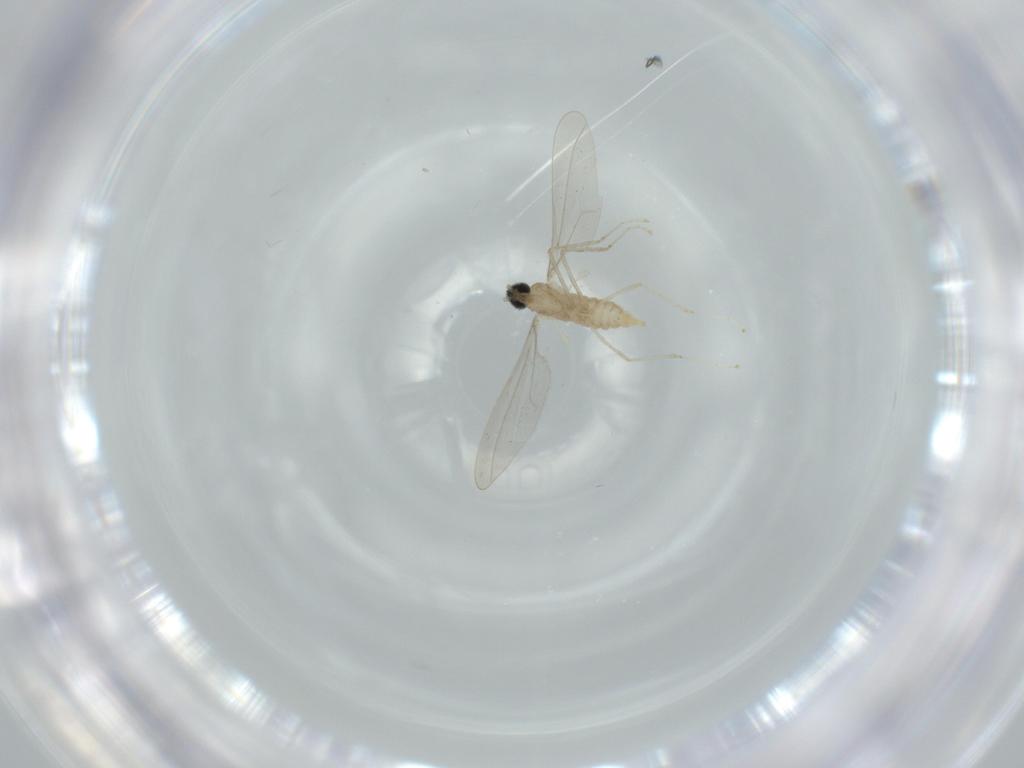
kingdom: Animalia
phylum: Arthropoda
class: Insecta
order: Diptera
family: Cecidomyiidae
